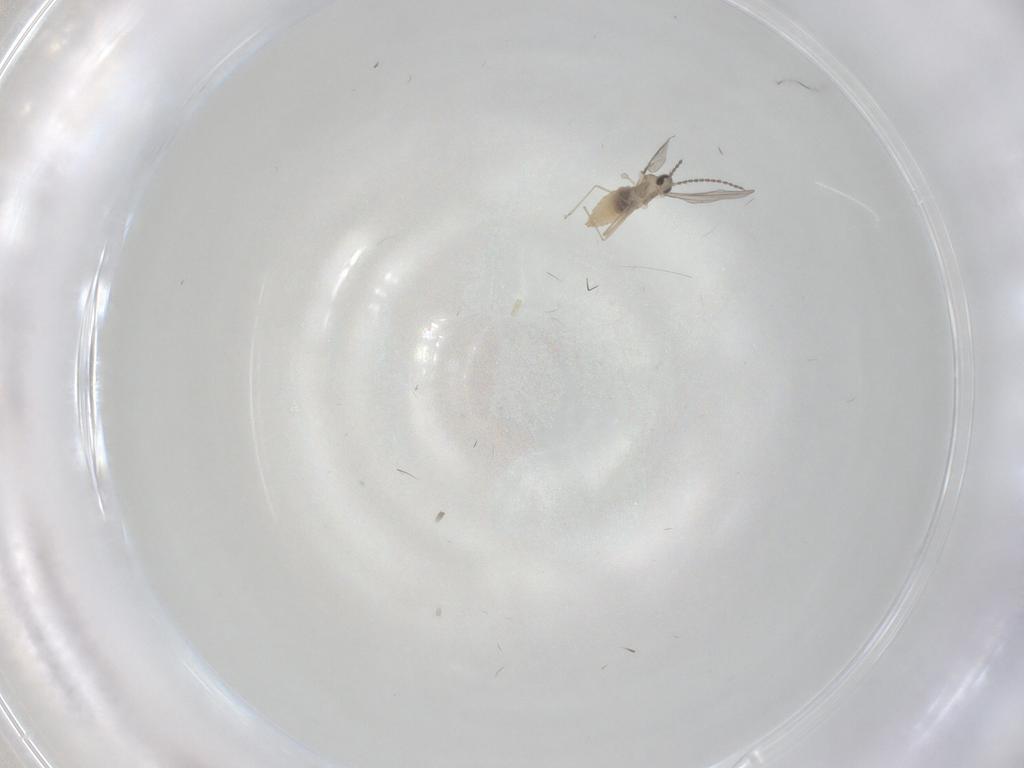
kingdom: Animalia
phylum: Arthropoda
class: Insecta
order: Diptera
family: Cecidomyiidae
